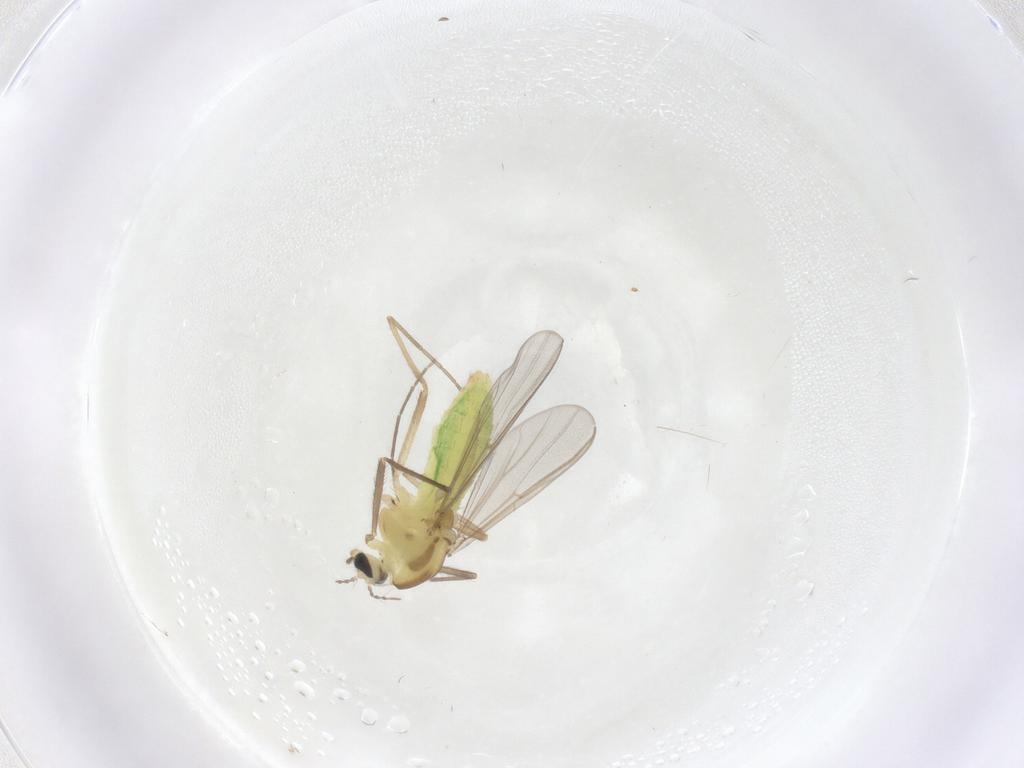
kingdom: Animalia
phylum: Arthropoda
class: Insecta
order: Diptera
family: Chironomidae
